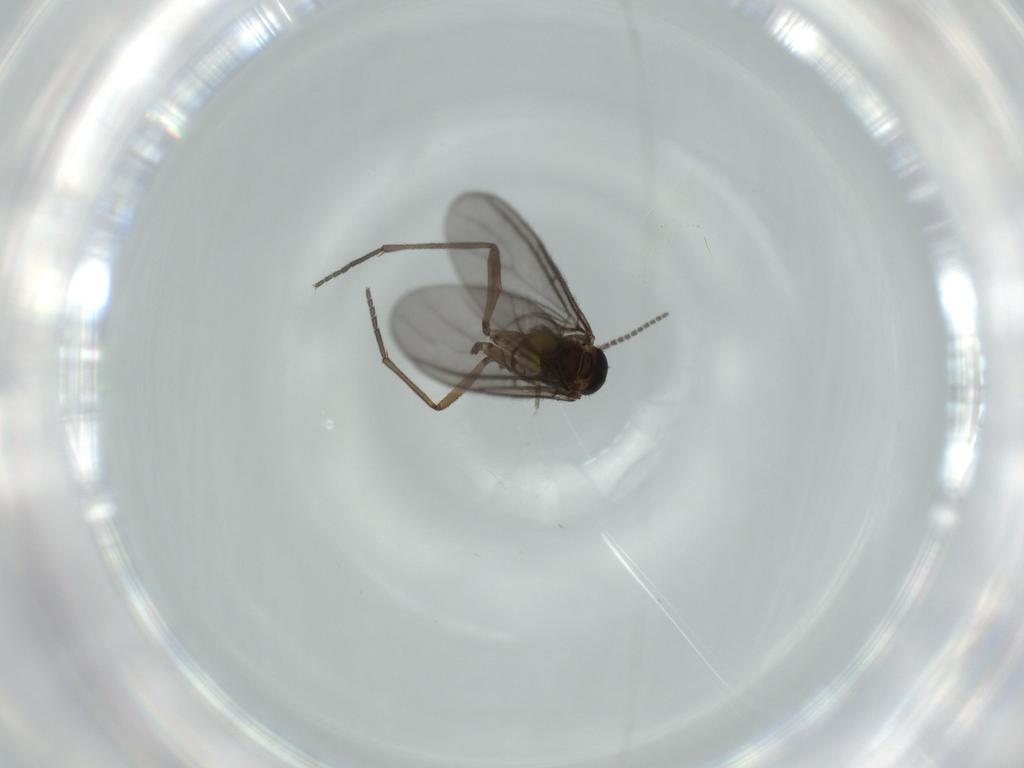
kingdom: Animalia
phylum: Arthropoda
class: Insecta
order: Diptera
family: Sciaridae
